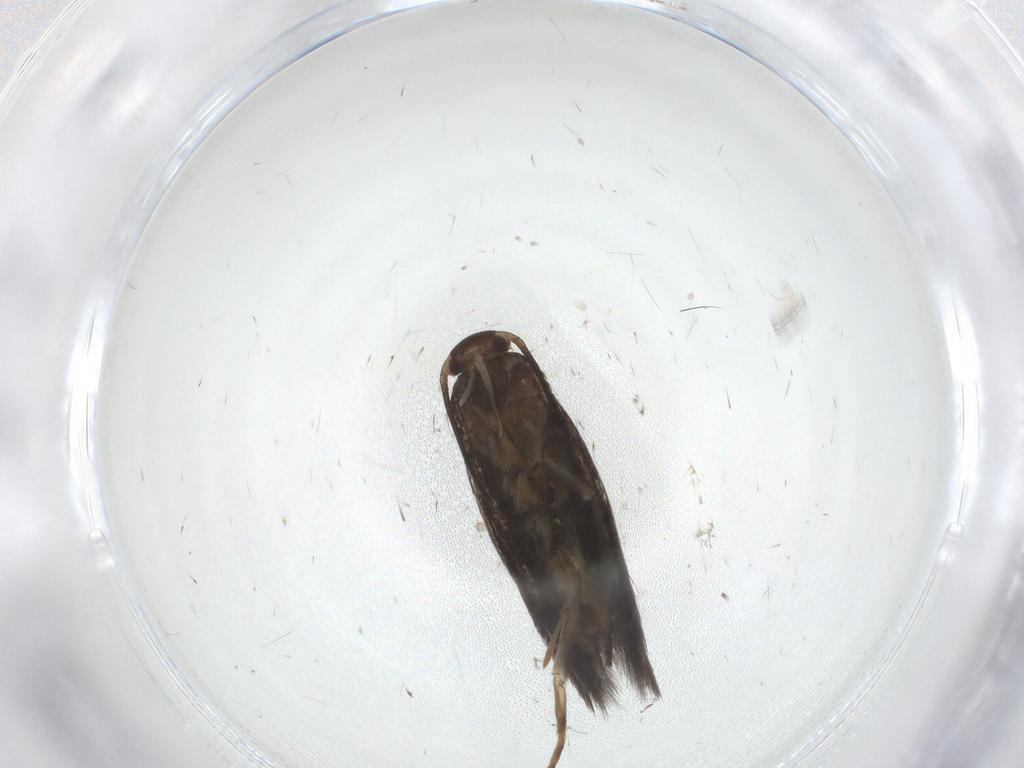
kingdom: Animalia
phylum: Arthropoda
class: Insecta
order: Lepidoptera
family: Elachistidae
